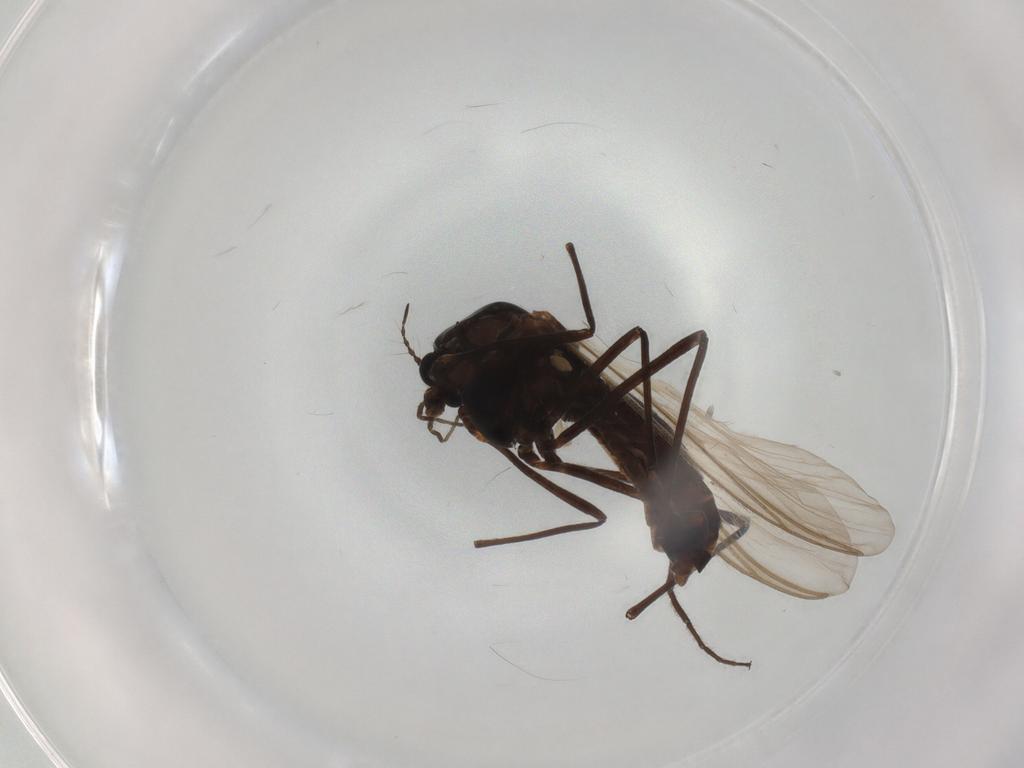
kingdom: Animalia
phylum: Arthropoda
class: Insecta
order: Diptera
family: Chironomidae
